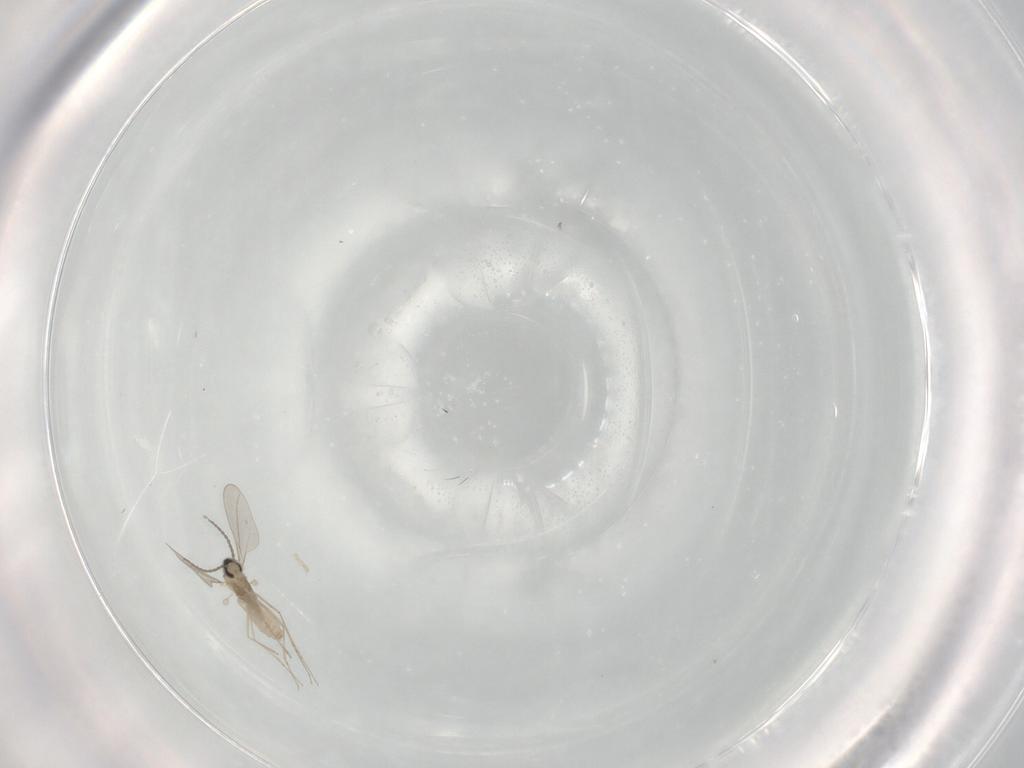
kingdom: Animalia
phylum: Arthropoda
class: Insecta
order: Diptera
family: Cecidomyiidae
